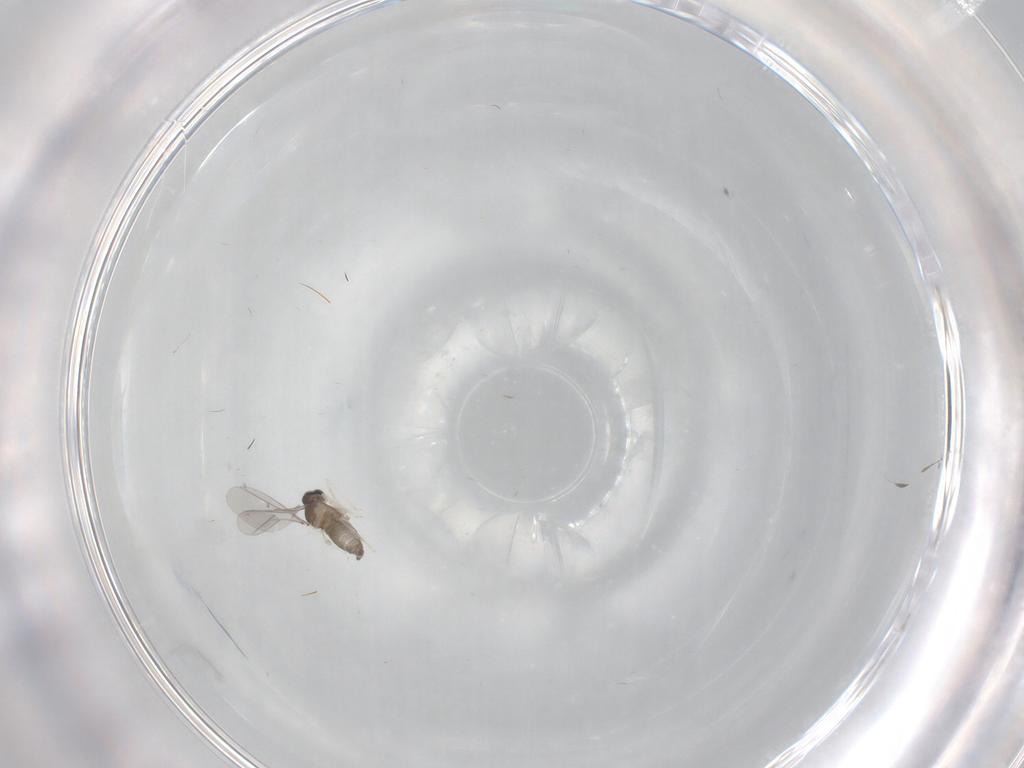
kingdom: Animalia
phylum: Arthropoda
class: Insecta
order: Diptera
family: Cecidomyiidae
